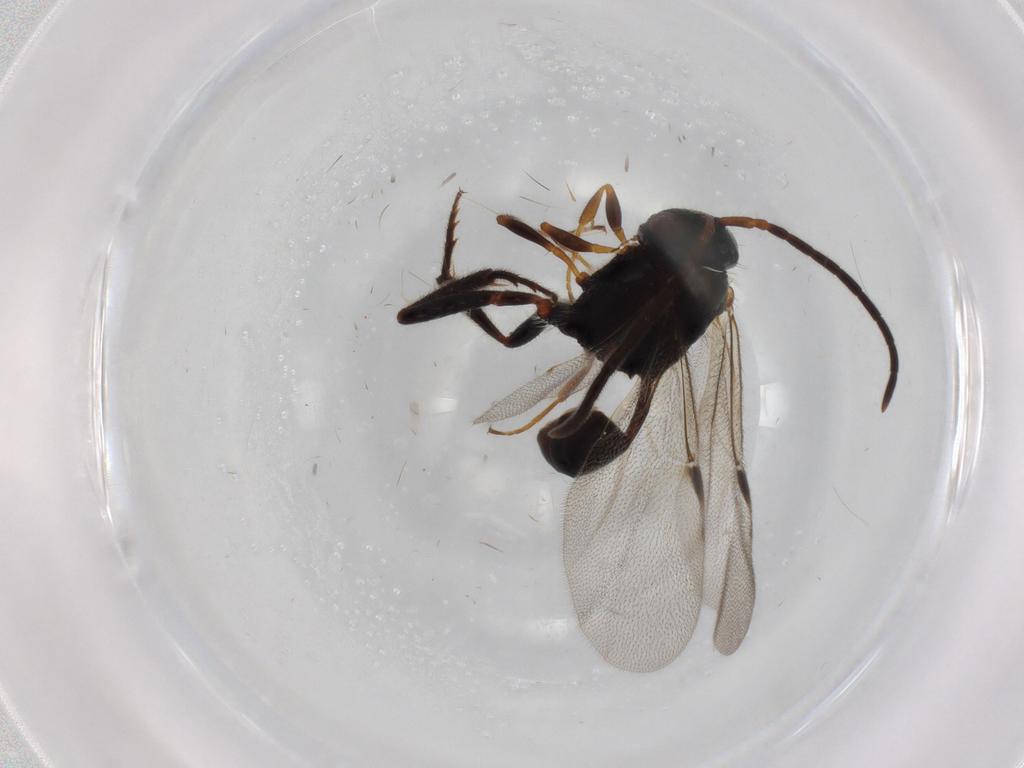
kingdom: Animalia
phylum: Arthropoda
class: Insecta
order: Hymenoptera
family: Evaniidae
